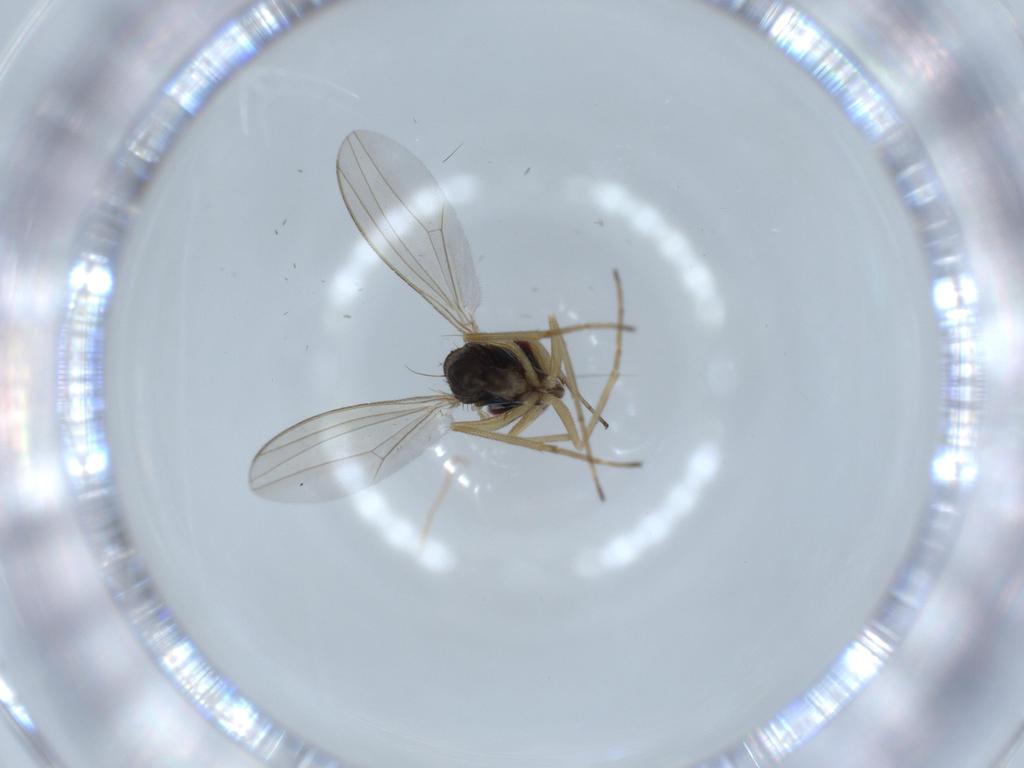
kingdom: Animalia
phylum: Arthropoda
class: Insecta
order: Diptera
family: Dolichopodidae
